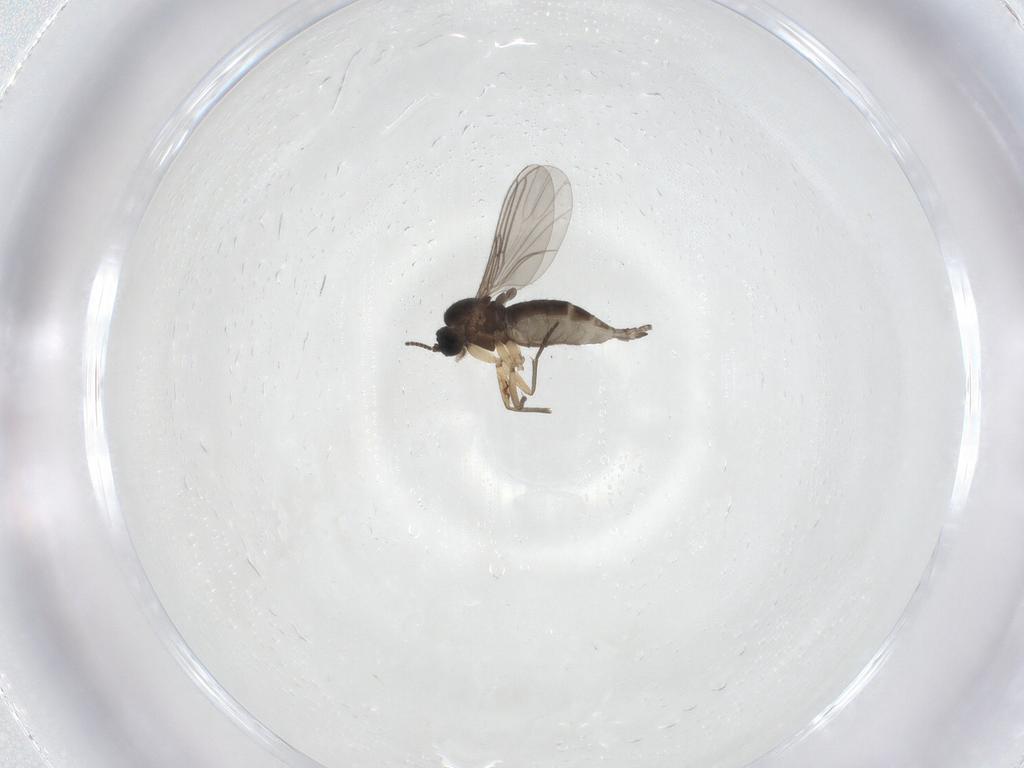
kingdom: Animalia
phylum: Arthropoda
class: Insecta
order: Diptera
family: Sciaridae
